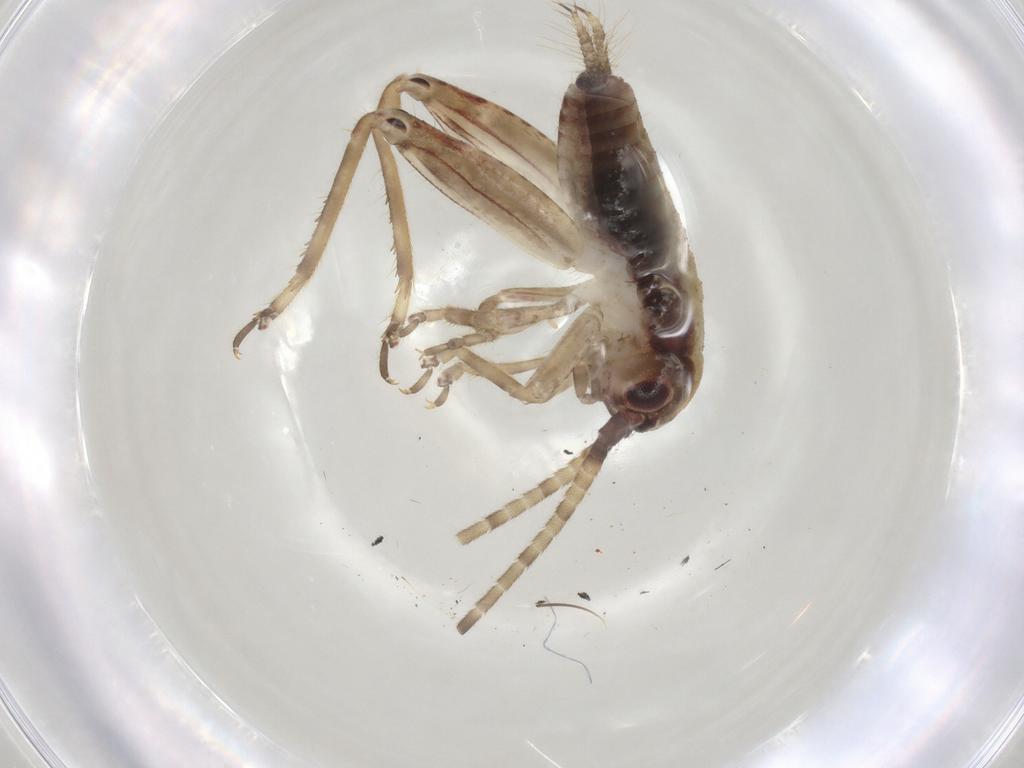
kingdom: Animalia
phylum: Arthropoda
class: Insecta
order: Orthoptera
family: Gryllidae
